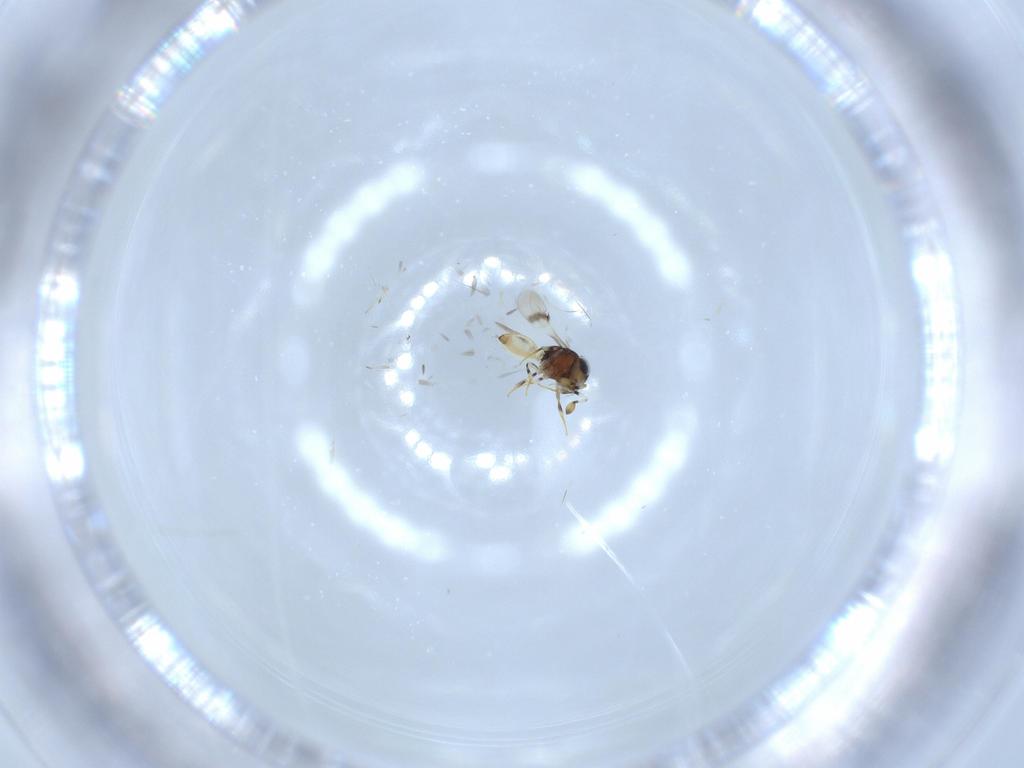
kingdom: Animalia
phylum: Arthropoda
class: Insecta
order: Hymenoptera
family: Scelionidae
